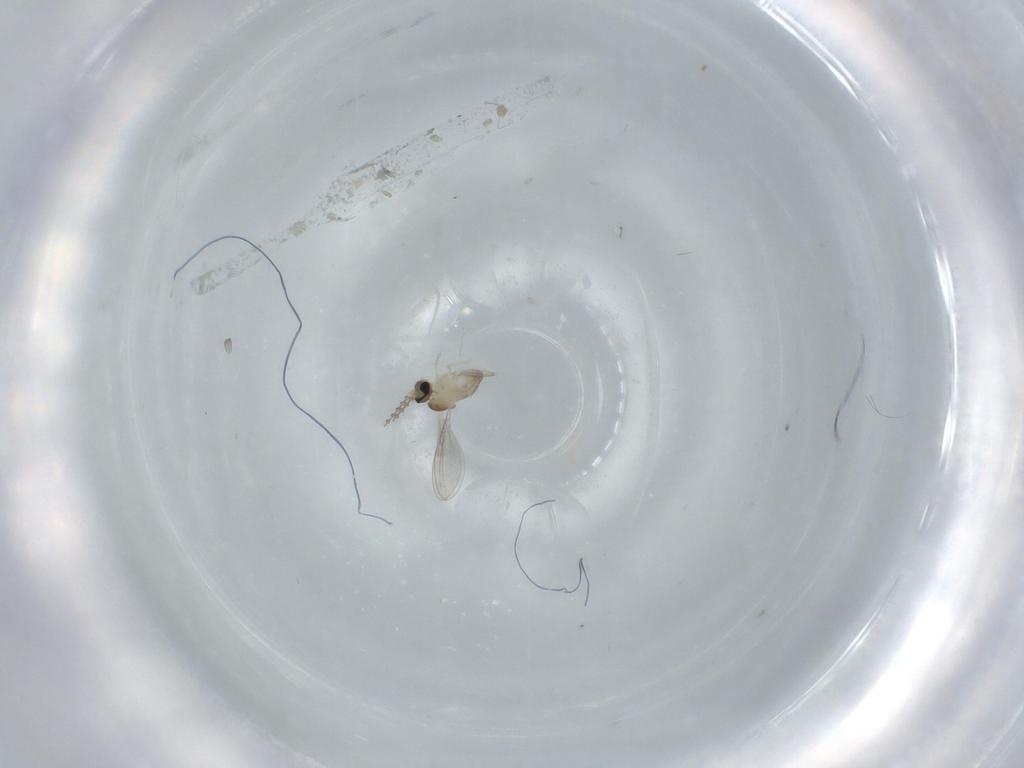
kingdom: Animalia
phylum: Arthropoda
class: Insecta
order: Diptera
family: Cecidomyiidae
